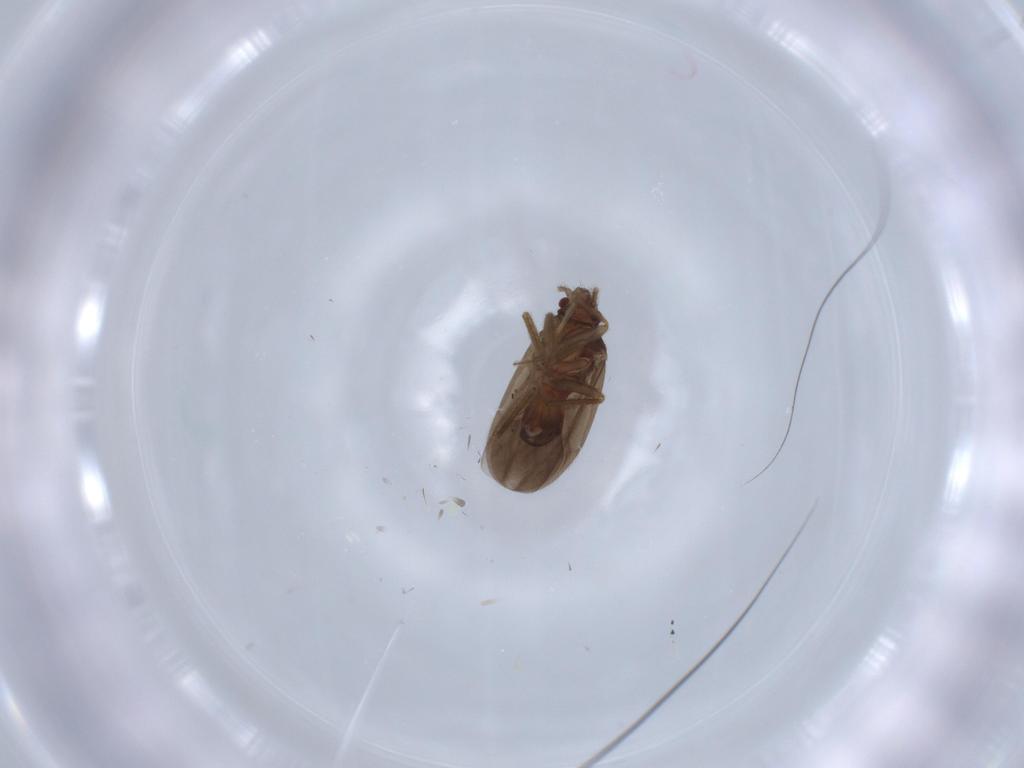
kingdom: Animalia
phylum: Arthropoda
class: Insecta
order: Hemiptera
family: Ceratocombidae
